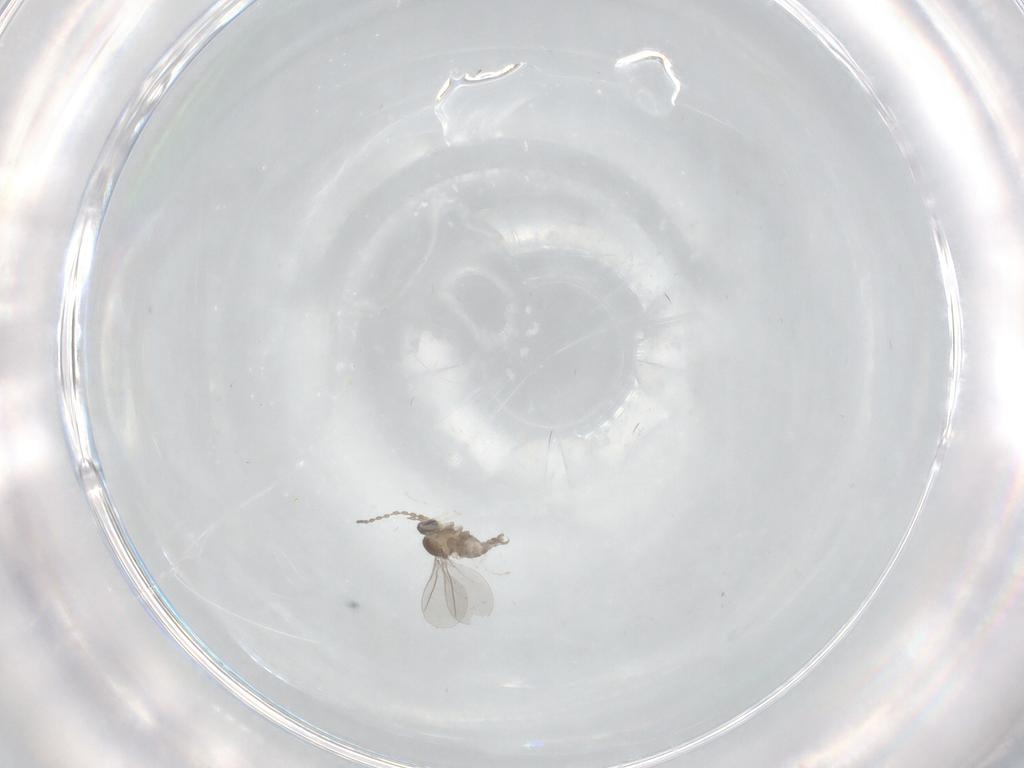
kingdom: Animalia
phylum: Arthropoda
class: Insecta
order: Diptera
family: Cecidomyiidae
